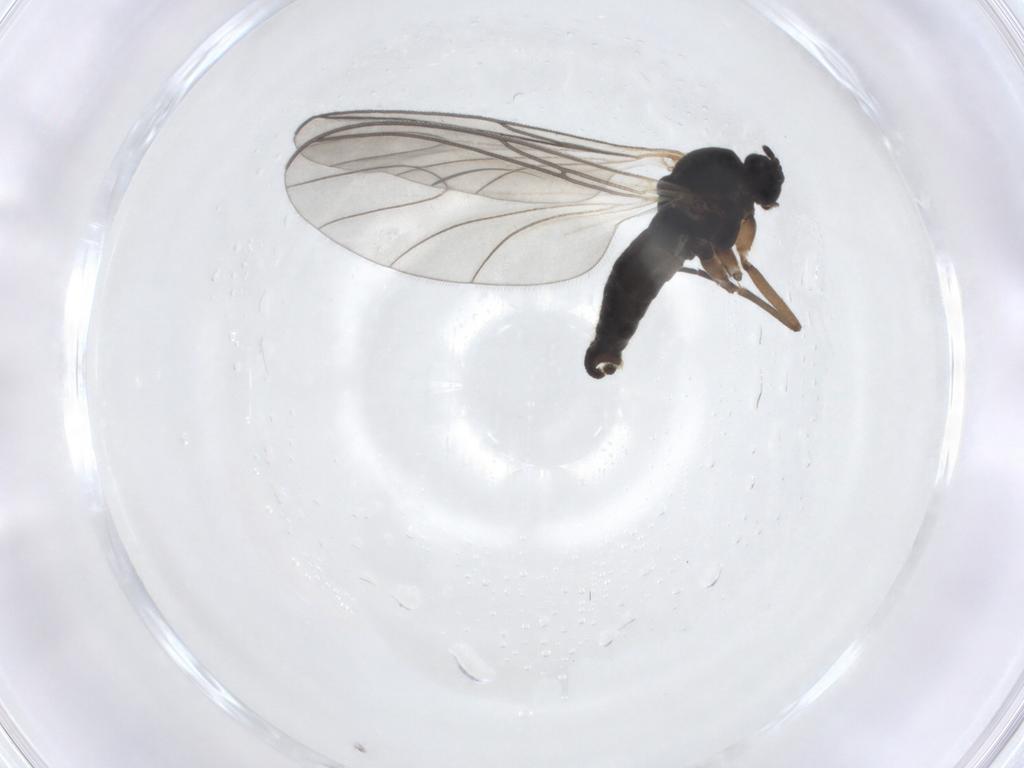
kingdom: Animalia
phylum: Arthropoda
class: Insecta
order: Diptera
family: Sciaridae
